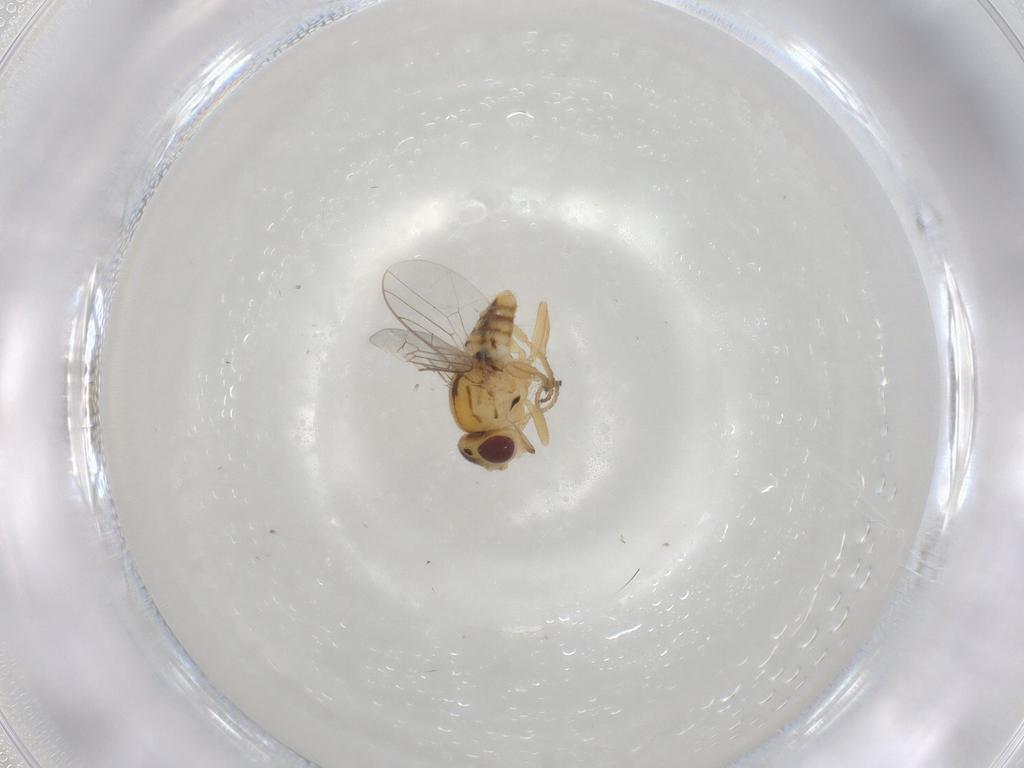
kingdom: Animalia
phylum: Arthropoda
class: Insecta
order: Diptera
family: Chloropidae
